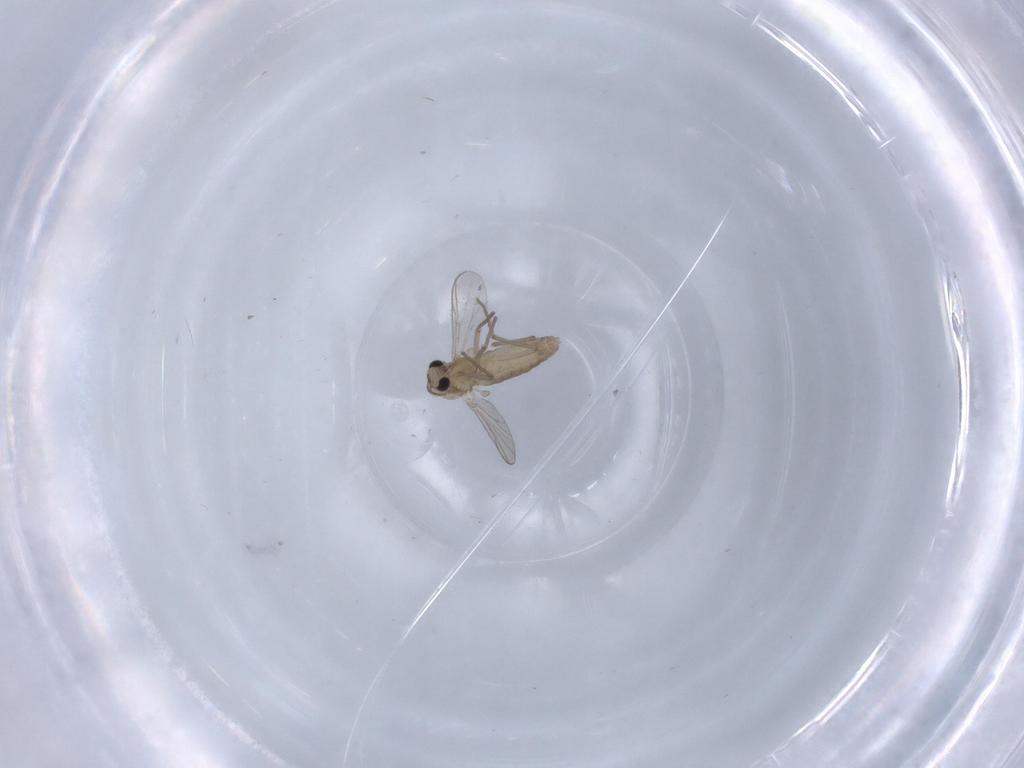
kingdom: Animalia
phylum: Arthropoda
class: Insecta
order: Diptera
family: Chironomidae
